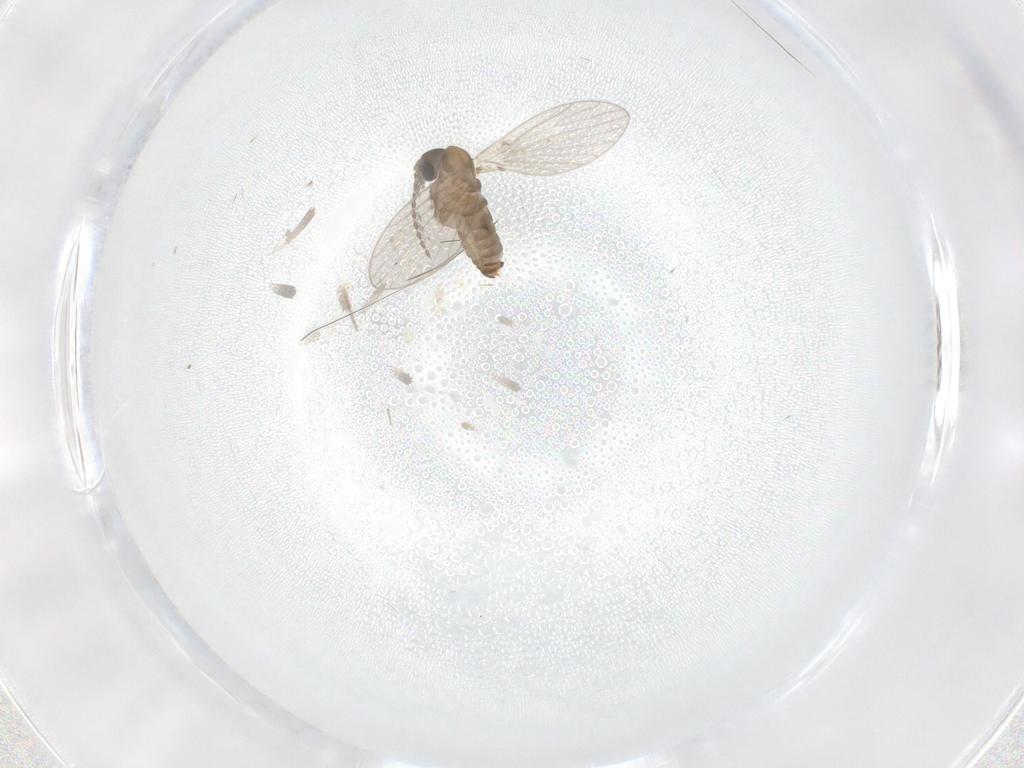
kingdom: Animalia
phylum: Arthropoda
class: Insecta
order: Diptera
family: Psychodidae
